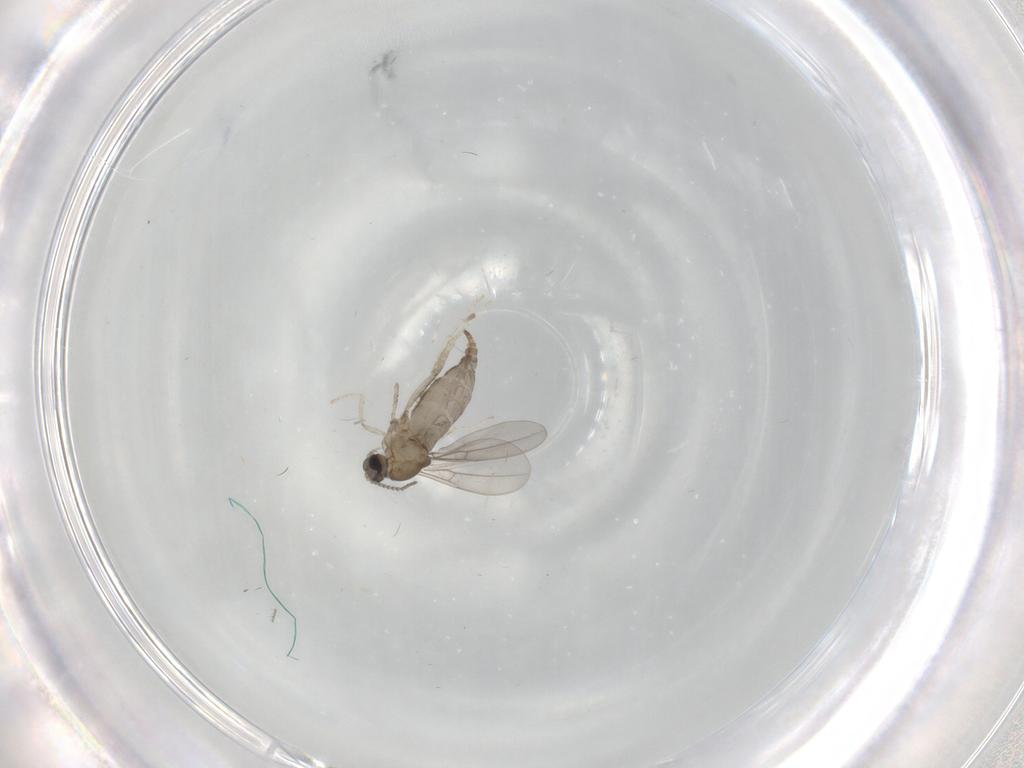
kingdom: Animalia
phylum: Arthropoda
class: Insecta
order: Diptera
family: Cecidomyiidae
